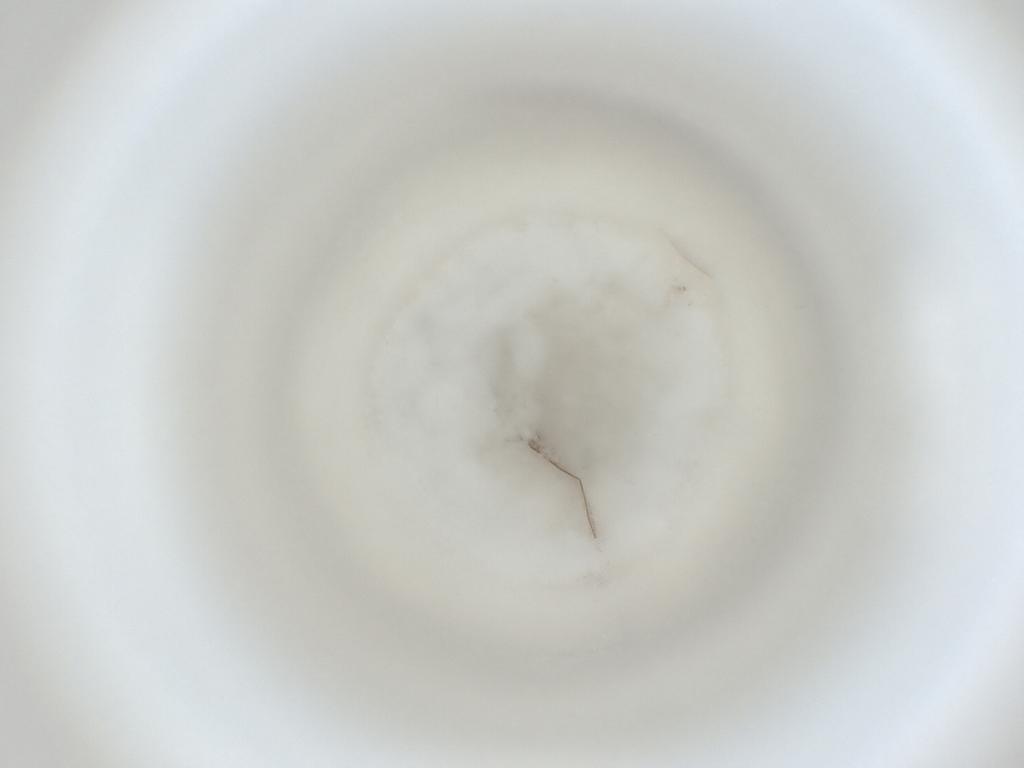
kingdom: Animalia
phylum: Arthropoda
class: Insecta
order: Diptera
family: Cecidomyiidae
